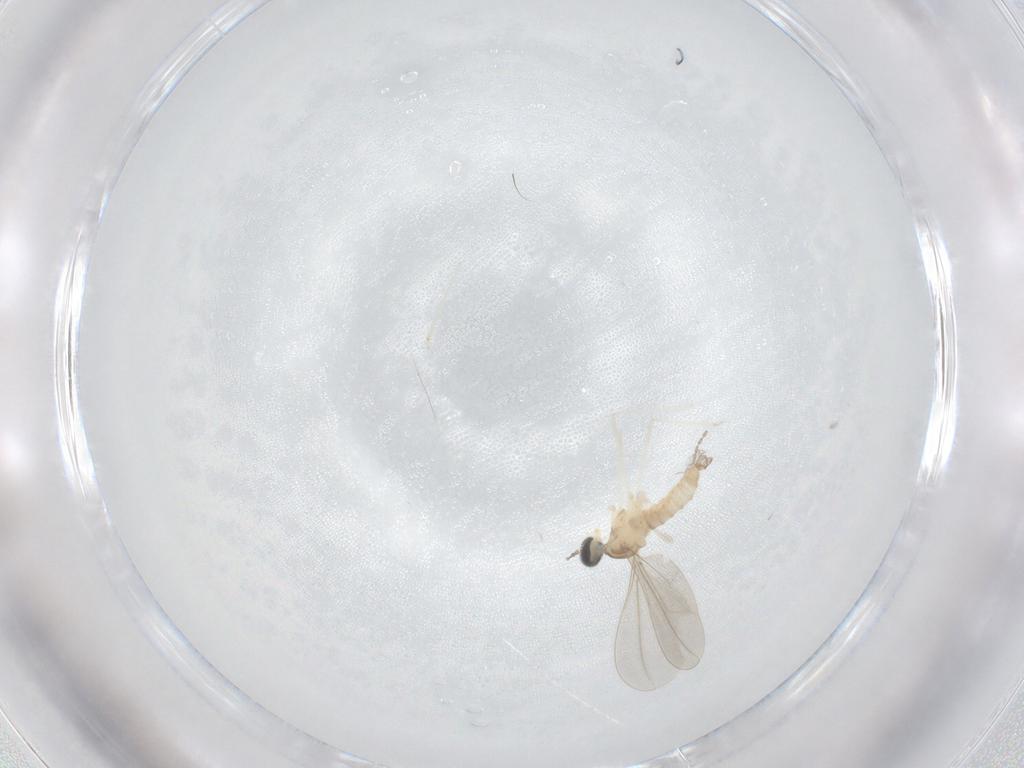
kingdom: Animalia
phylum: Arthropoda
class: Insecta
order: Diptera
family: Cecidomyiidae
